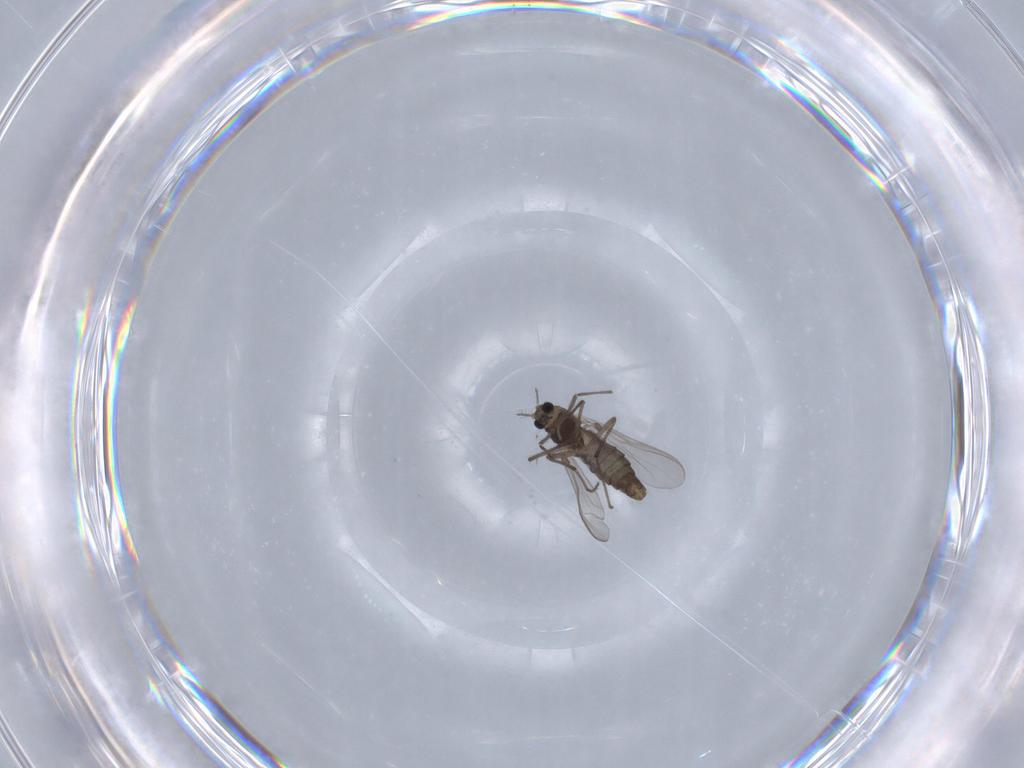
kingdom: Animalia
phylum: Arthropoda
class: Insecta
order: Diptera
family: Chironomidae
